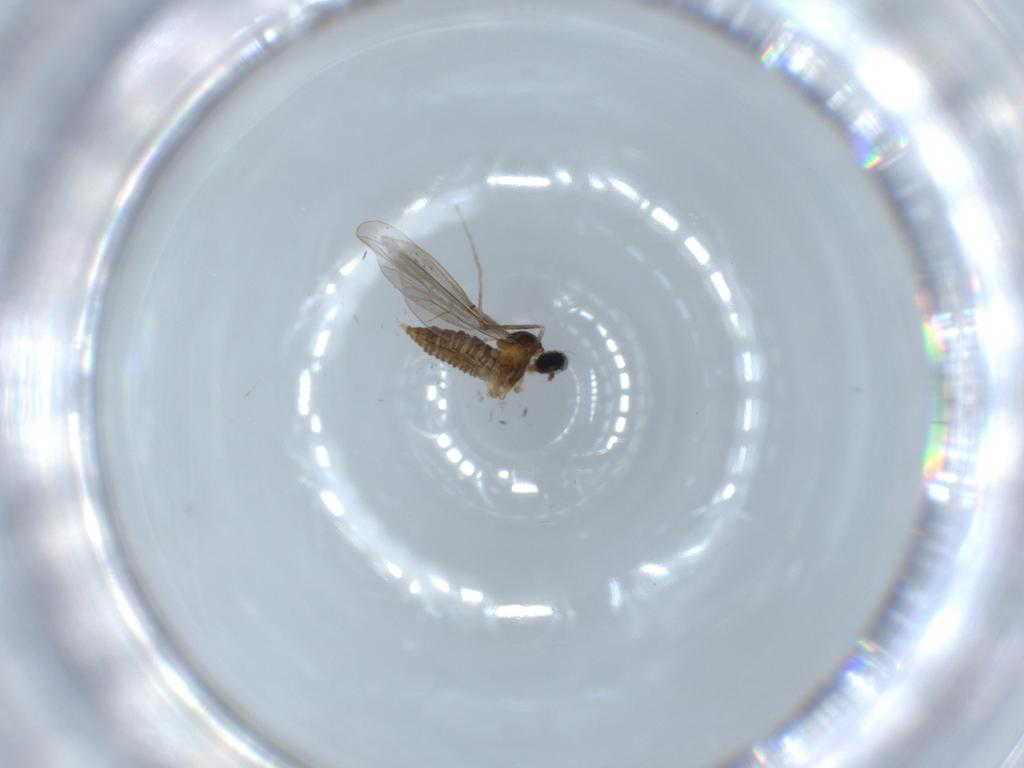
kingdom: Animalia
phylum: Arthropoda
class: Insecta
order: Diptera
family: Cecidomyiidae
